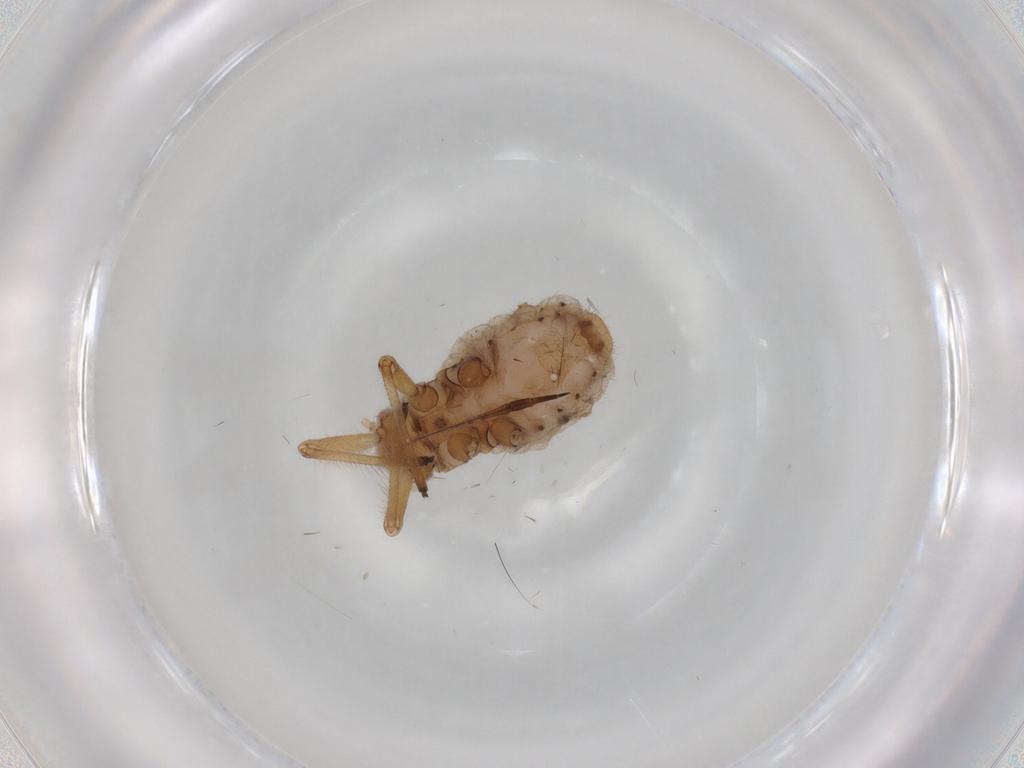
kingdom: Animalia
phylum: Arthropoda
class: Insecta
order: Hemiptera
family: Aphididae
